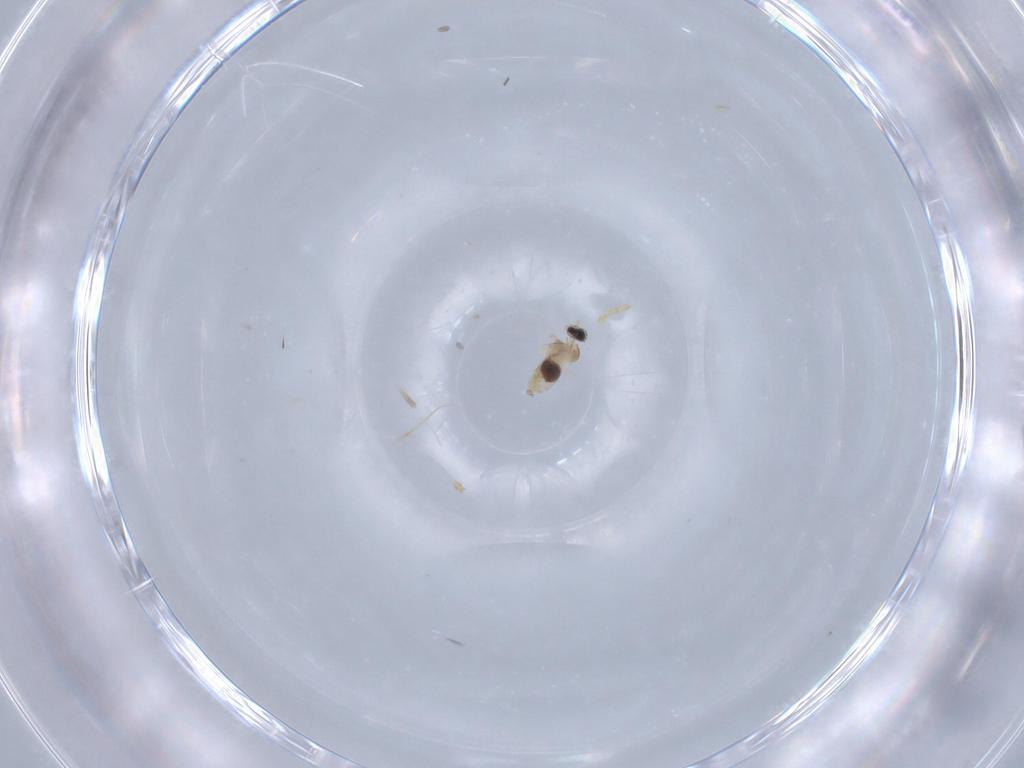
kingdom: Animalia
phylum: Arthropoda
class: Insecta
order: Diptera
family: Cecidomyiidae
